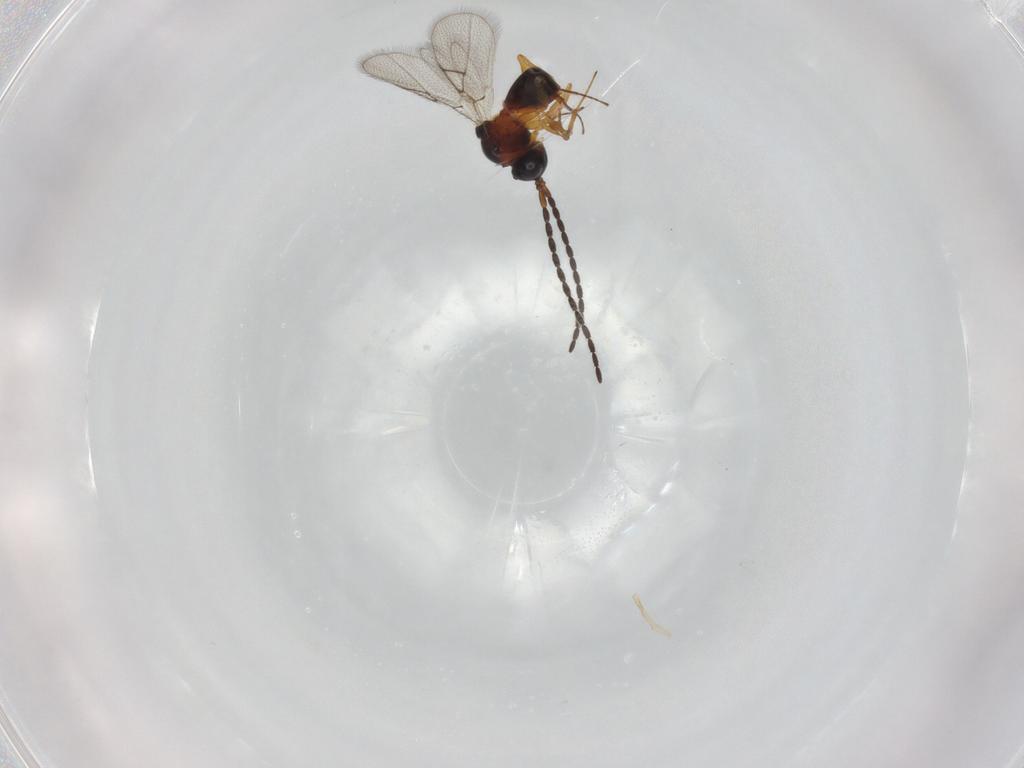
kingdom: Animalia
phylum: Arthropoda
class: Insecta
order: Hymenoptera
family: Figitidae
